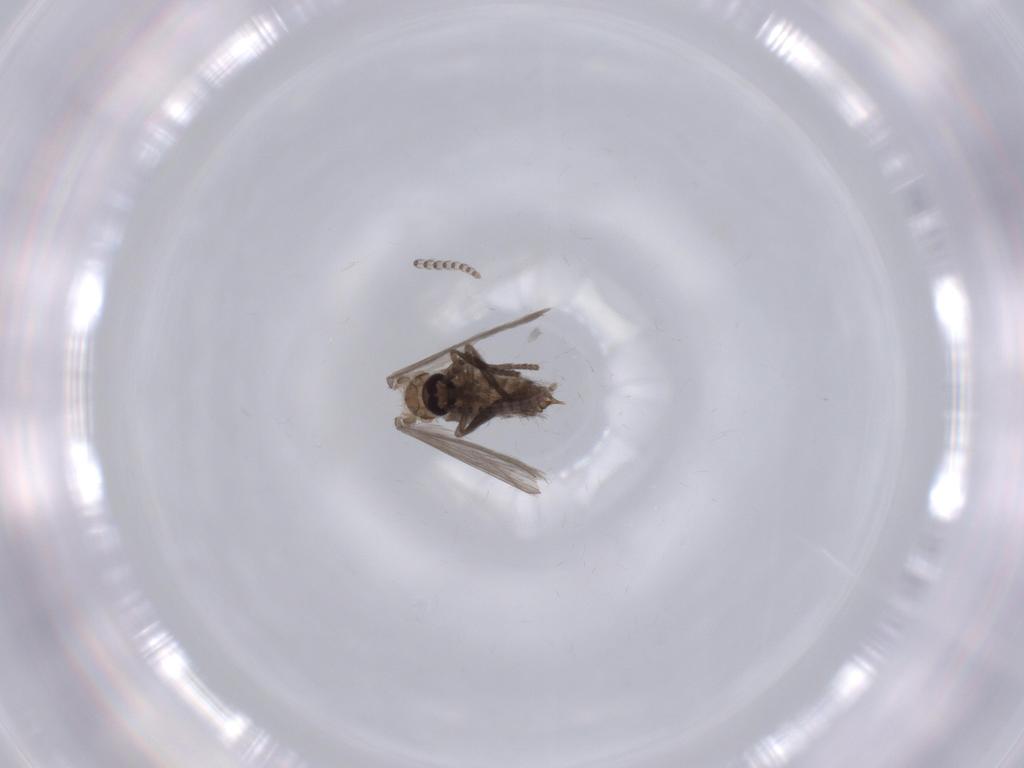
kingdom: Animalia
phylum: Arthropoda
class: Insecta
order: Diptera
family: Psychodidae
